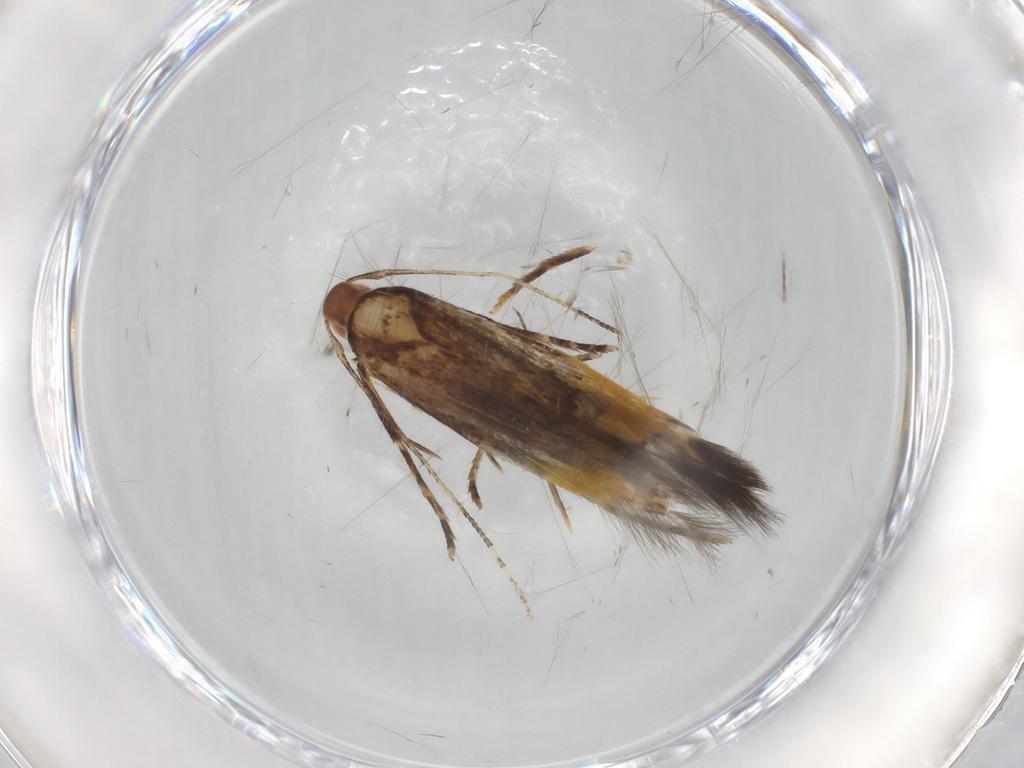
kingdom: Animalia
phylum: Arthropoda
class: Insecta
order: Lepidoptera
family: Cosmopterigidae
